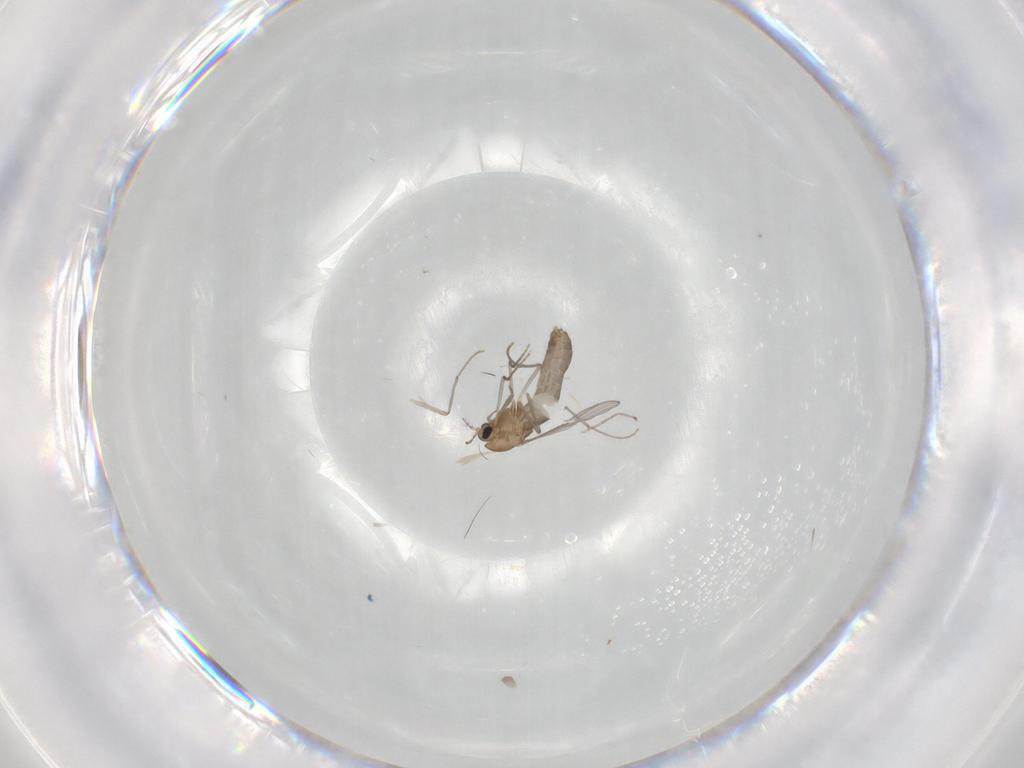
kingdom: Animalia
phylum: Arthropoda
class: Insecta
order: Diptera
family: Chironomidae
